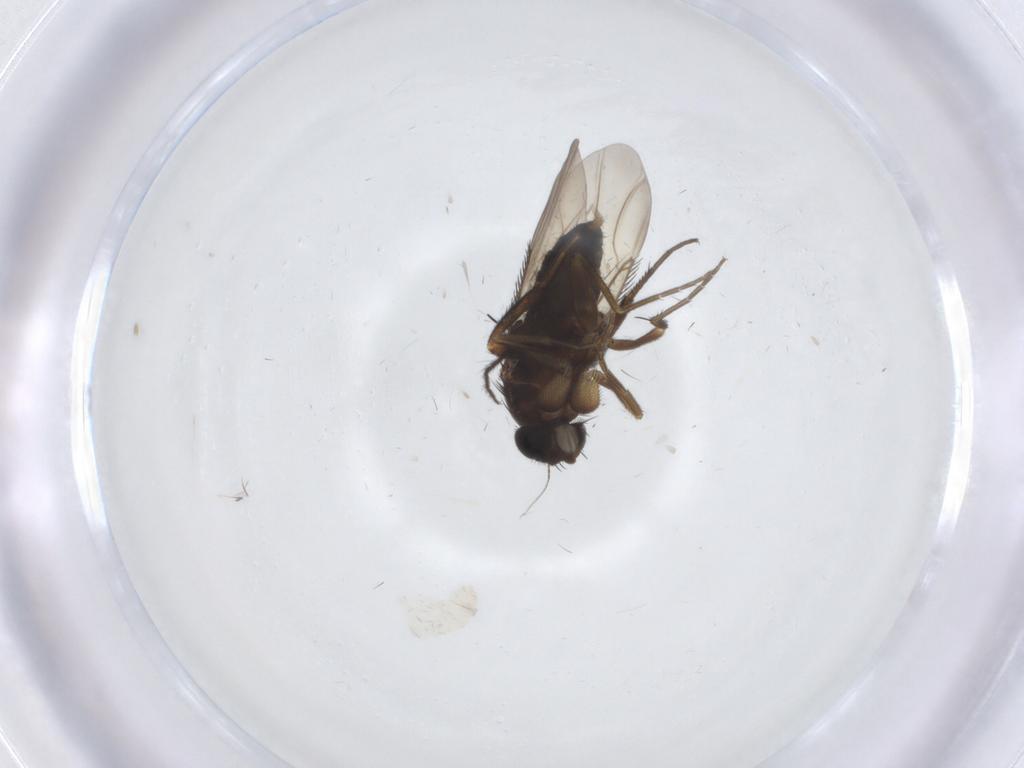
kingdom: Animalia
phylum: Arthropoda
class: Insecta
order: Diptera
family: Phoridae
